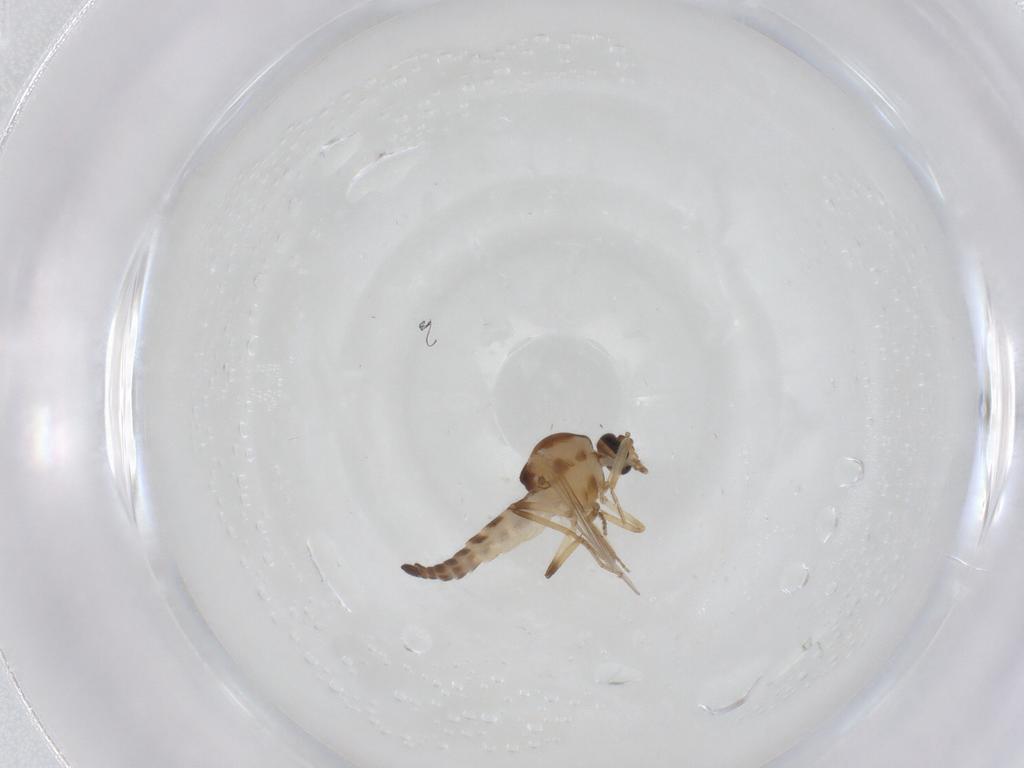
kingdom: Animalia
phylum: Arthropoda
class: Insecta
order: Diptera
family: Ceratopogonidae
